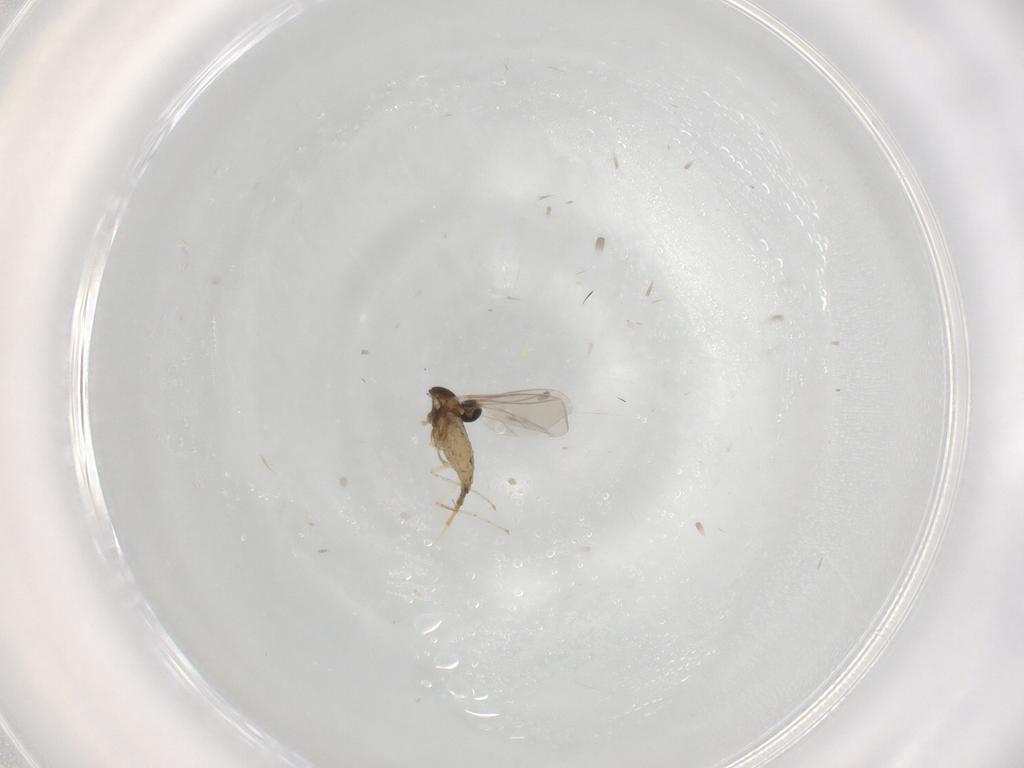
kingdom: Animalia
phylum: Arthropoda
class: Insecta
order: Diptera
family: Cecidomyiidae
